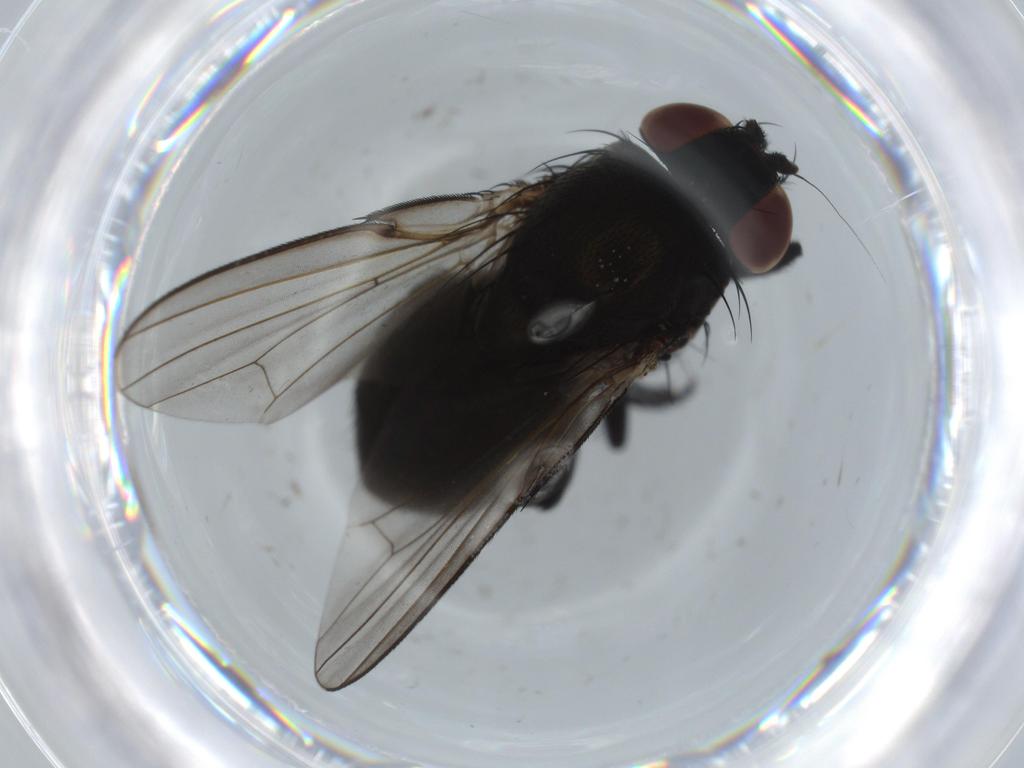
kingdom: Animalia
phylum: Arthropoda
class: Insecta
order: Diptera
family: Milichiidae
